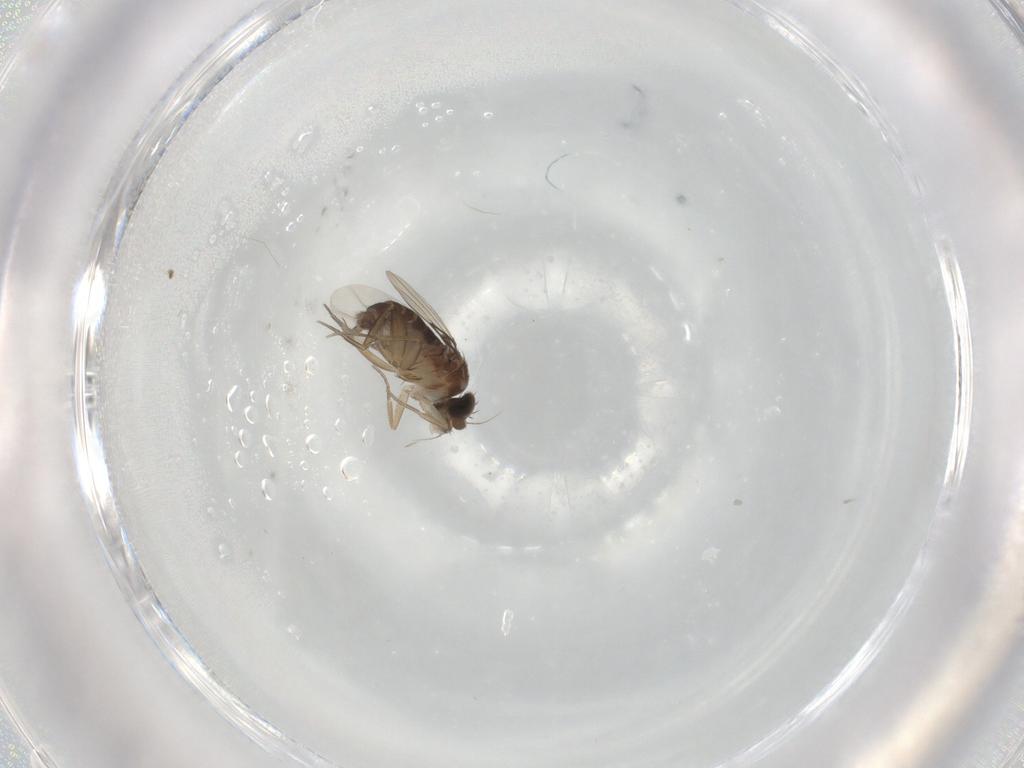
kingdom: Animalia
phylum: Arthropoda
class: Insecta
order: Diptera
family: Phoridae
